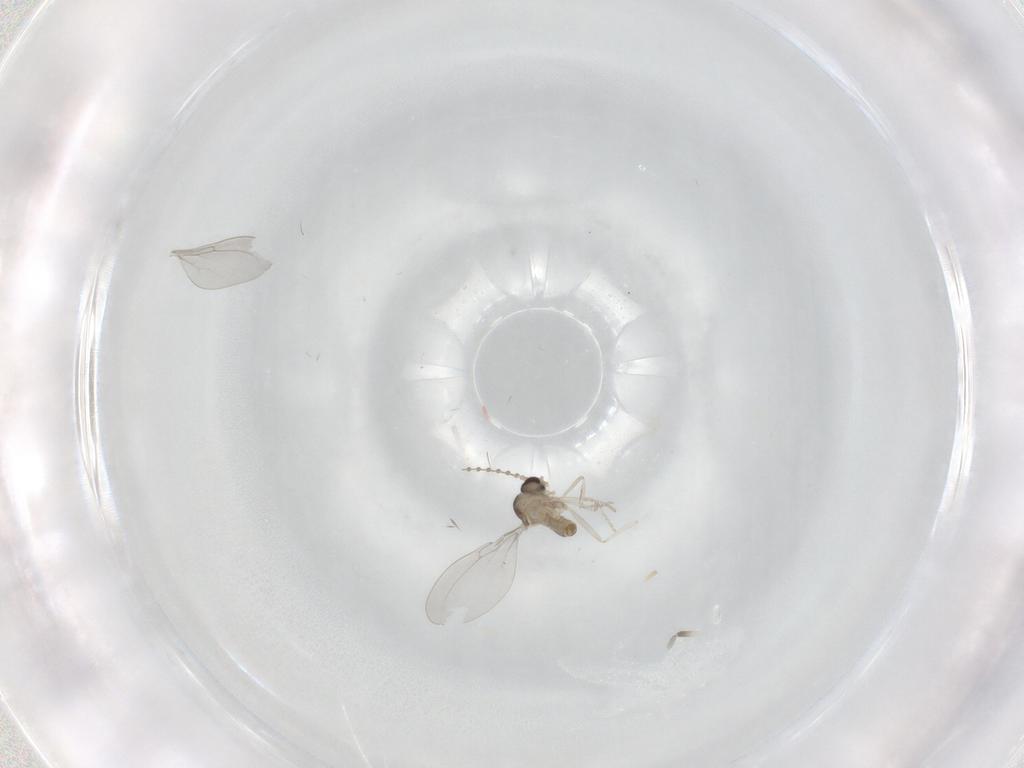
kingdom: Animalia
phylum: Arthropoda
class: Insecta
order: Diptera
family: Cecidomyiidae
